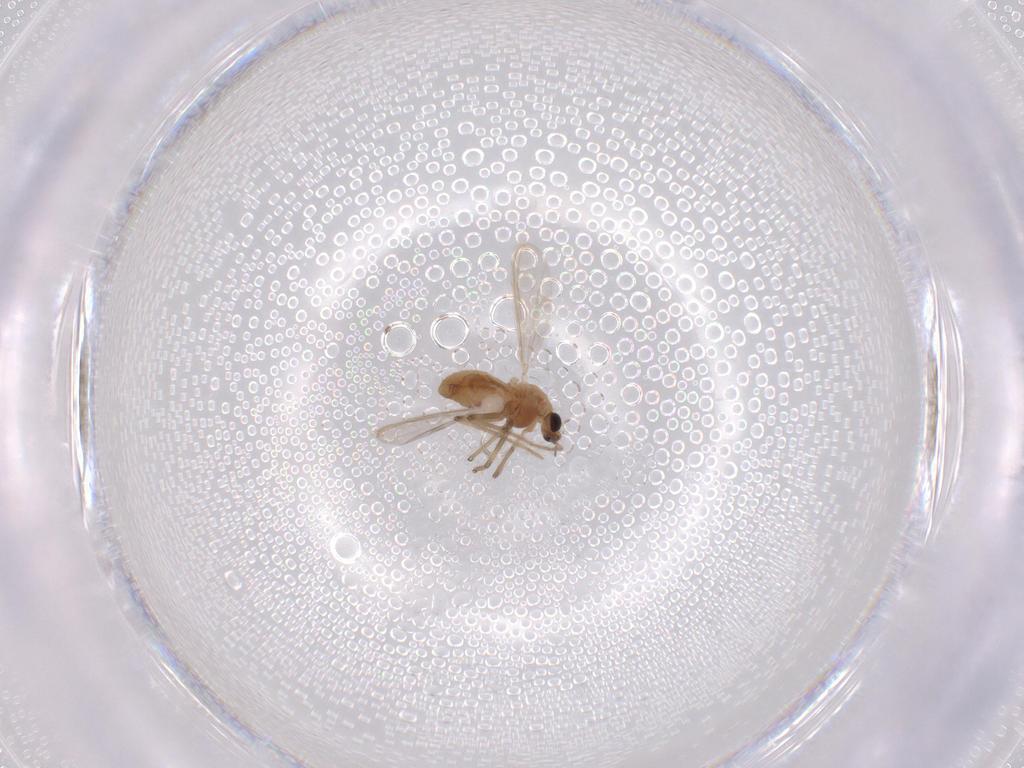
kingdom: Animalia
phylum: Arthropoda
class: Insecta
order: Diptera
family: Chironomidae
